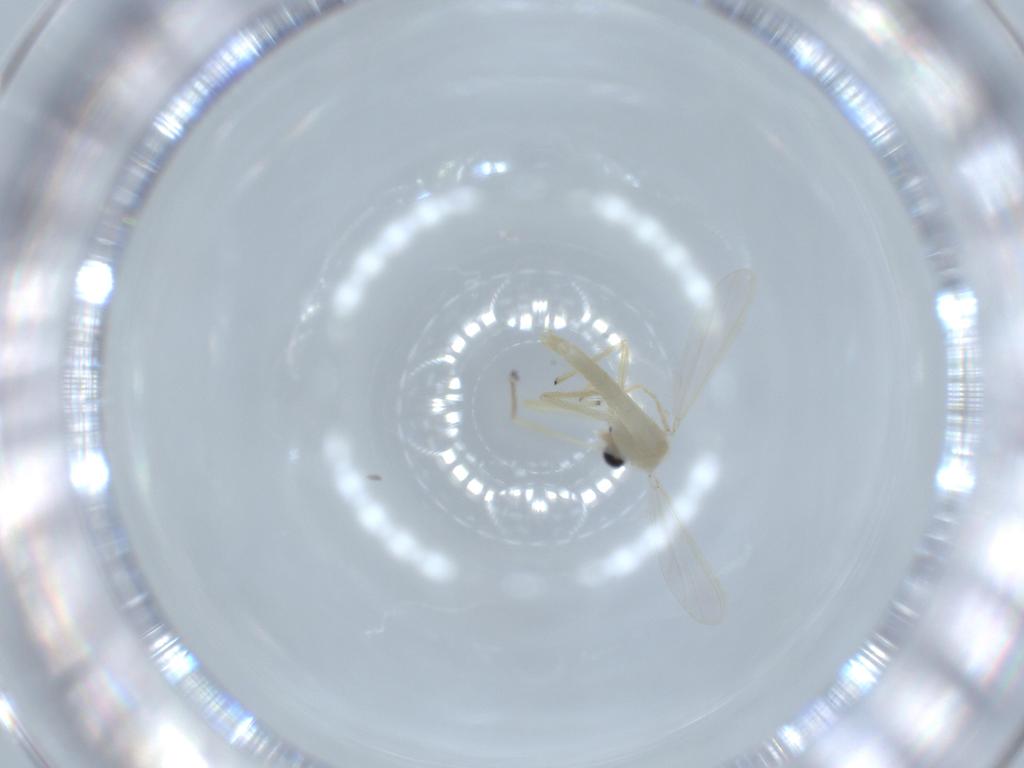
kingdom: Animalia
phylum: Arthropoda
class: Insecta
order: Diptera
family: Chironomidae
